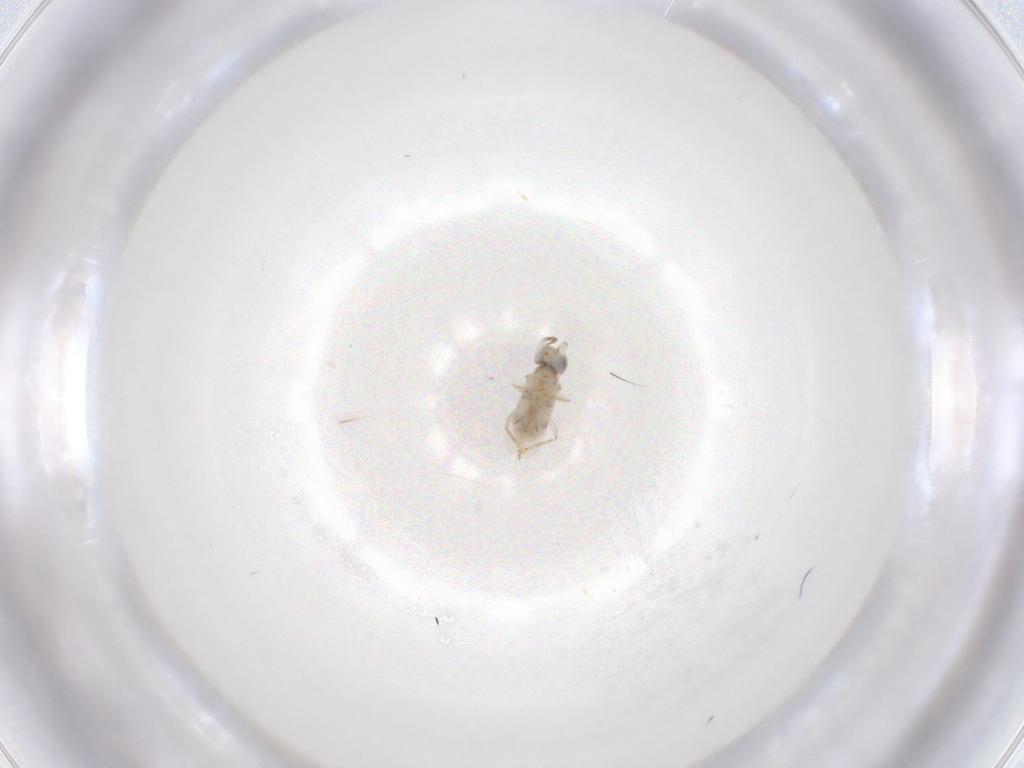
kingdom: Animalia
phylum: Arthropoda
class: Insecta
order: Hymenoptera
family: Encyrtidae
